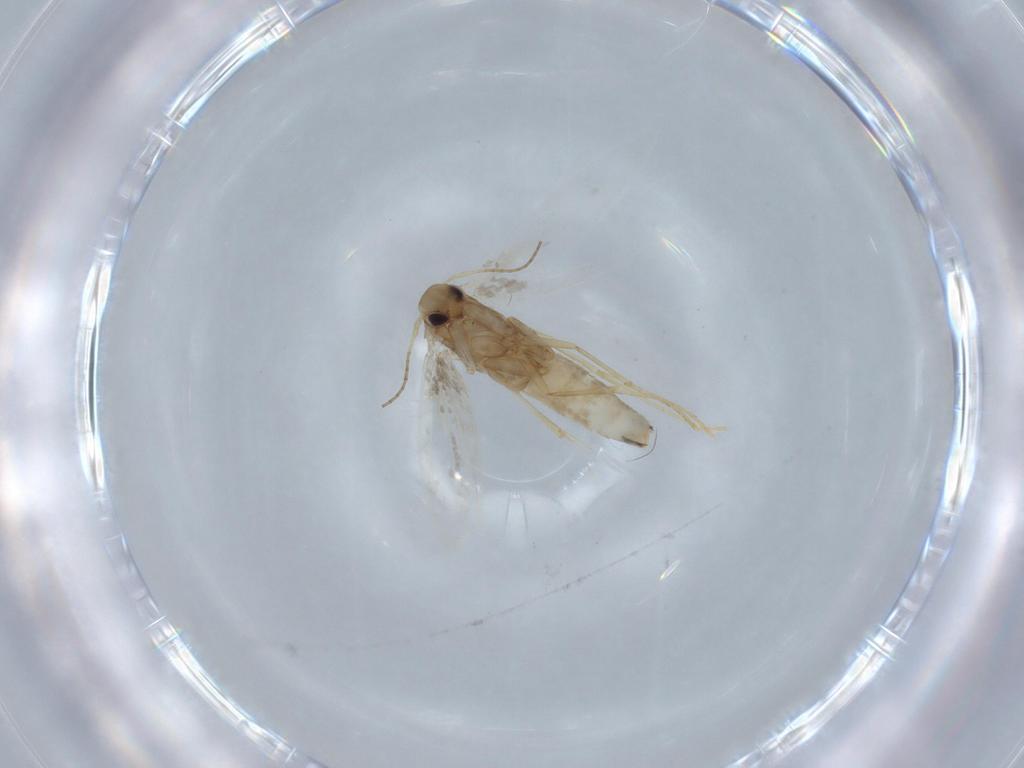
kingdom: Animalia
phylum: Arthropoda
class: Insecta
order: Lepidoptera
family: Gracillariidae
